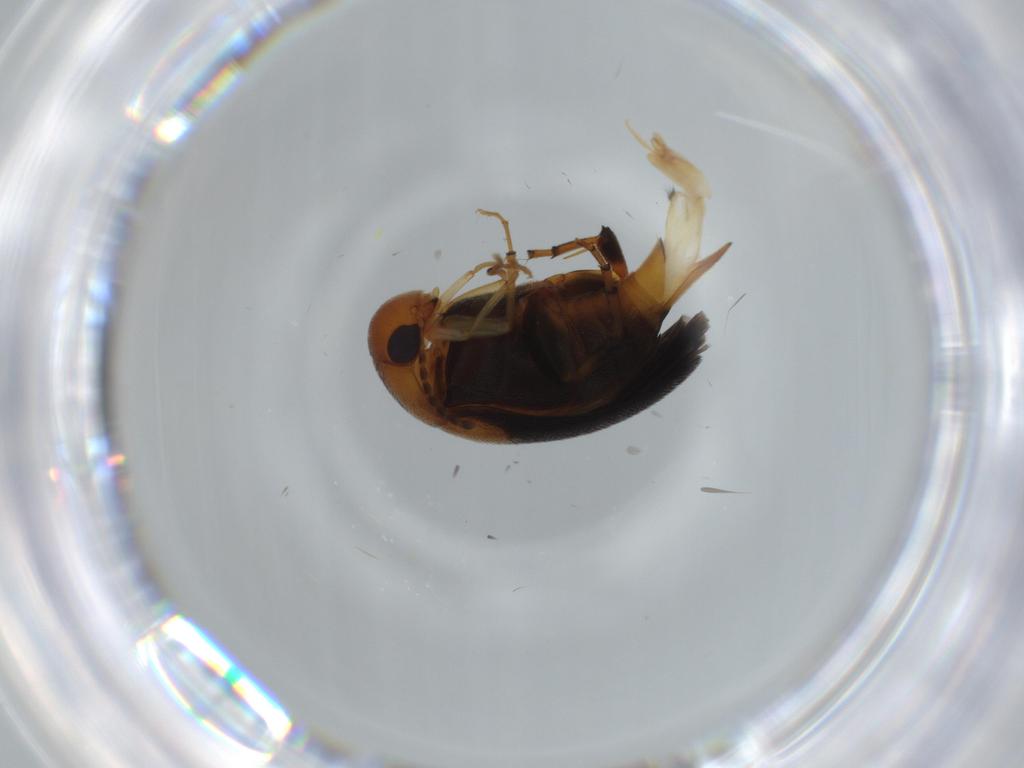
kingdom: Animalia
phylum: Arthropoda
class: Insecta
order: Coleoptera
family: Mordellidae
